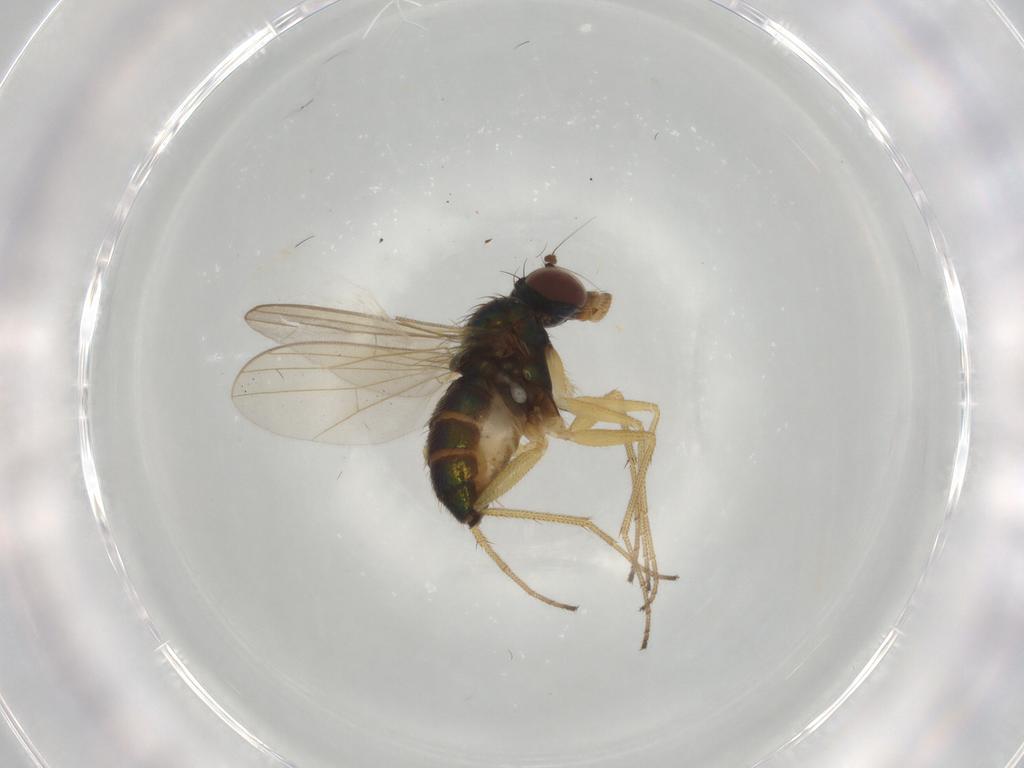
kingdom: Animalia
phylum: Arthropoda
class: Insecta
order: Diptera
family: Dolichopodidae
